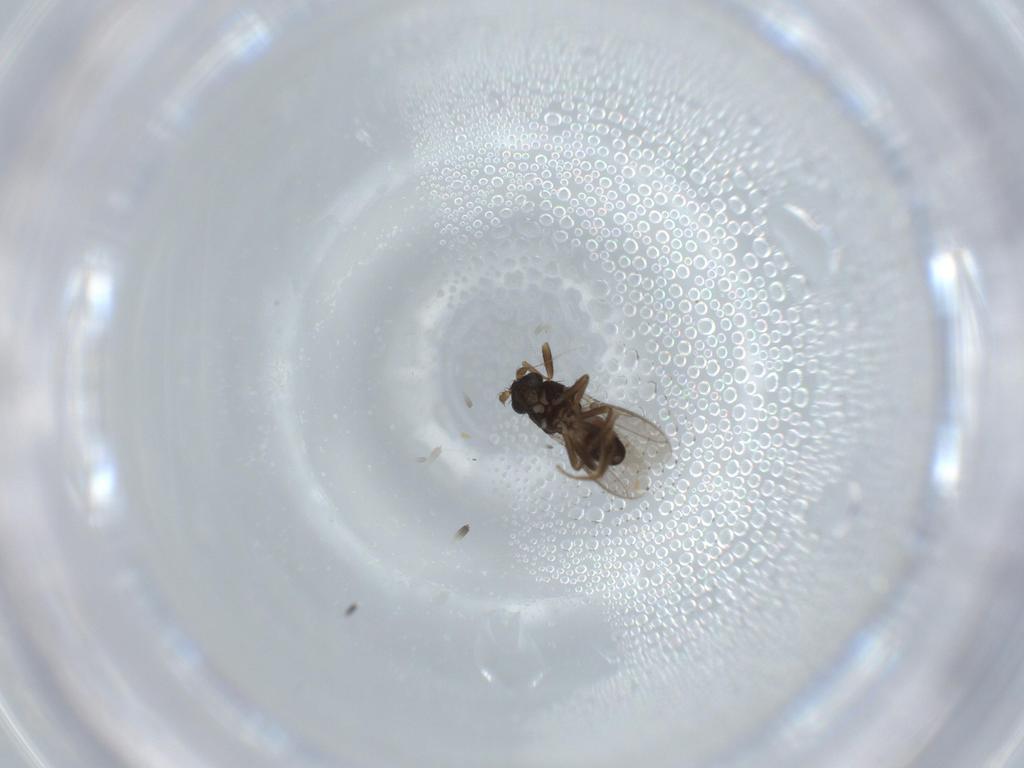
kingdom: Animalia
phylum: Arthropoda
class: Insecta
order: Diptera
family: Sphaeroceridae
